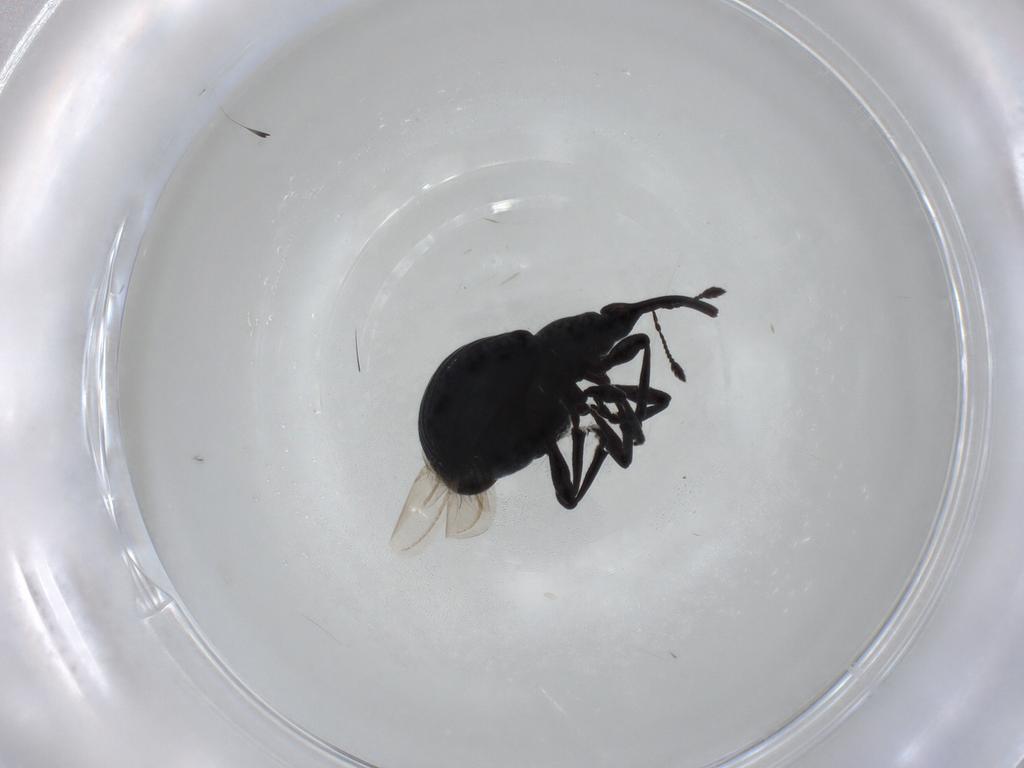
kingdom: Animalia
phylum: Arthropoda
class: Insecta
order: Coleoptera
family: Brentidae
